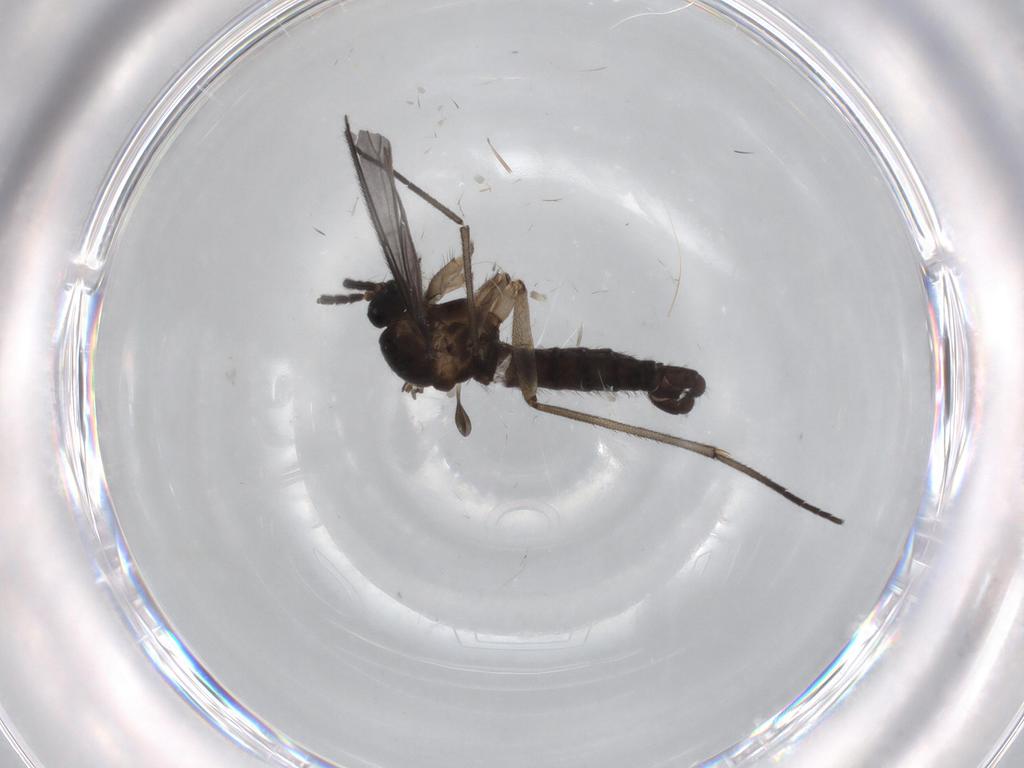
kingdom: Animalia
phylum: Arthropoda
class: Insecta
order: Diptera
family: Sciaridae
